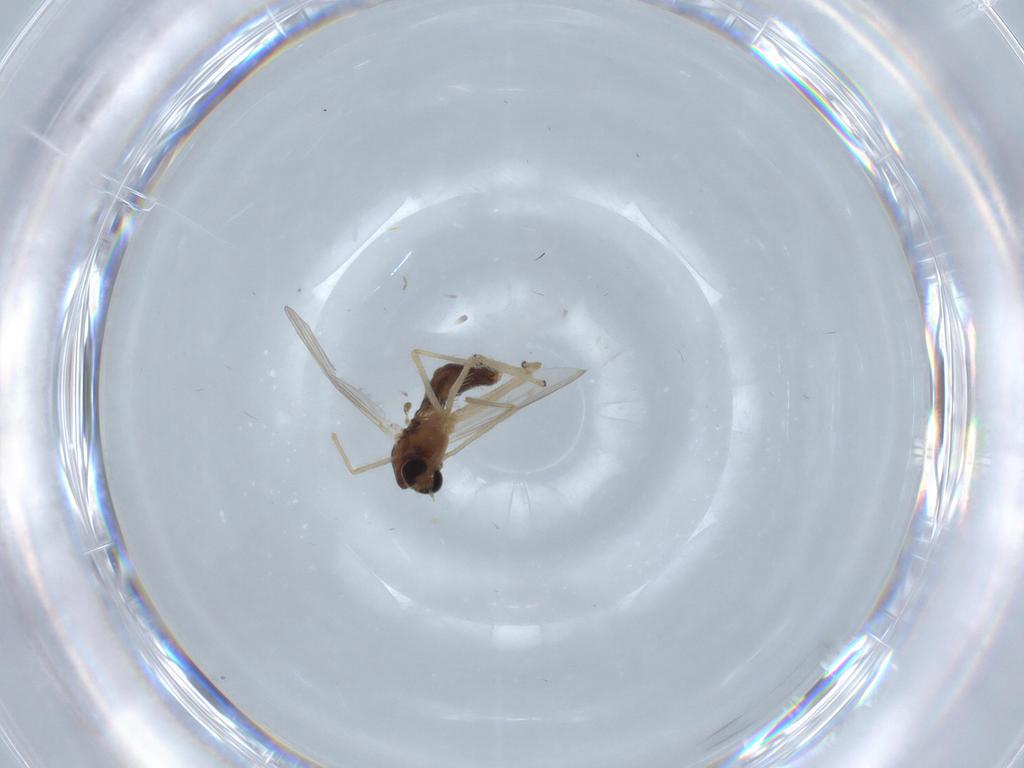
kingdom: Animalia
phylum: Arthropoda
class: Insecta
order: Diptera
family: Chironomidae
